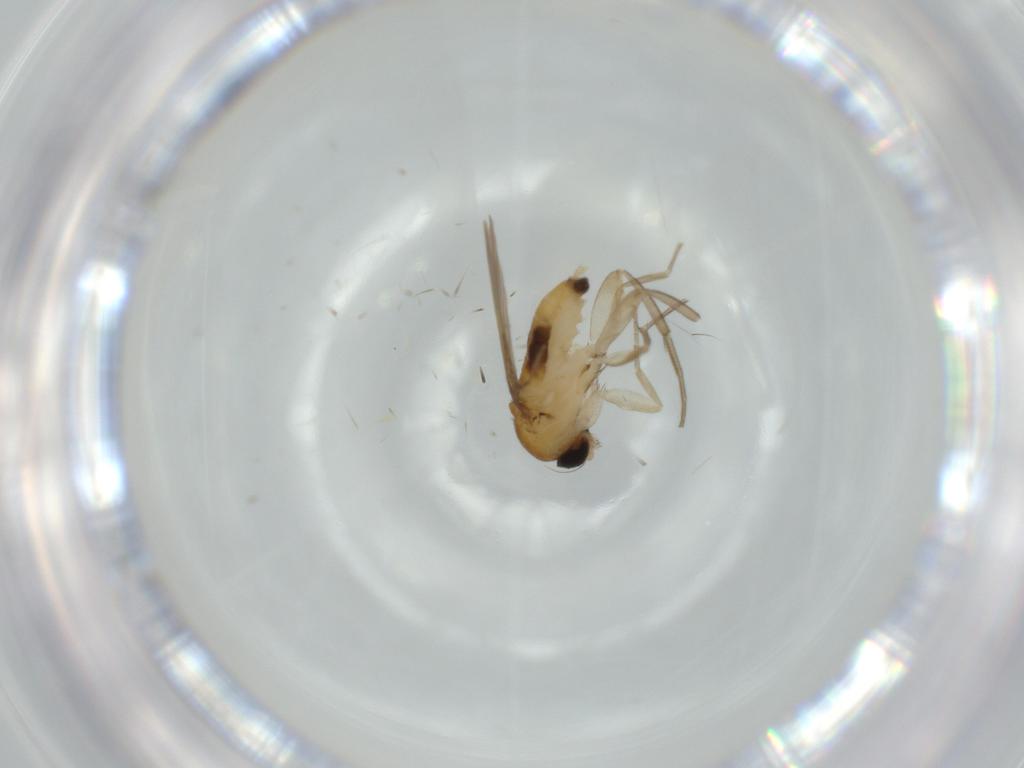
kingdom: Animalia
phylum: Arthropoda
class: Insecta
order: Diptera
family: Phoridae
